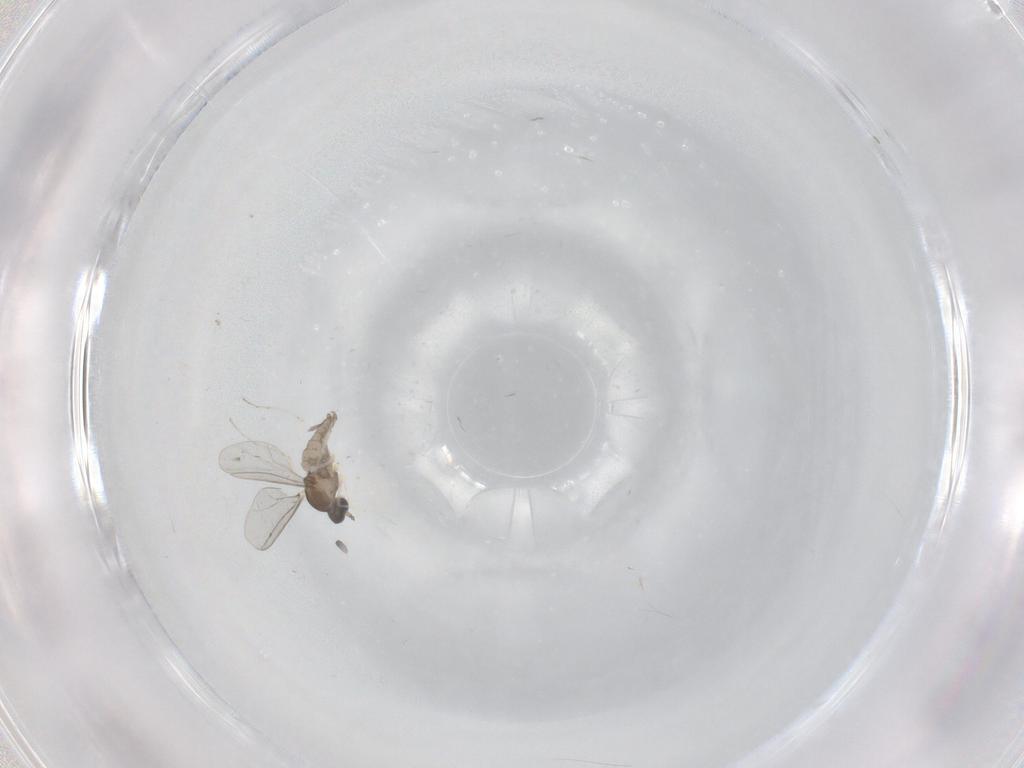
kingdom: Animalia
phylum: Arthropoda
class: Insecta
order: Diptera
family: Cecidomyiidae
